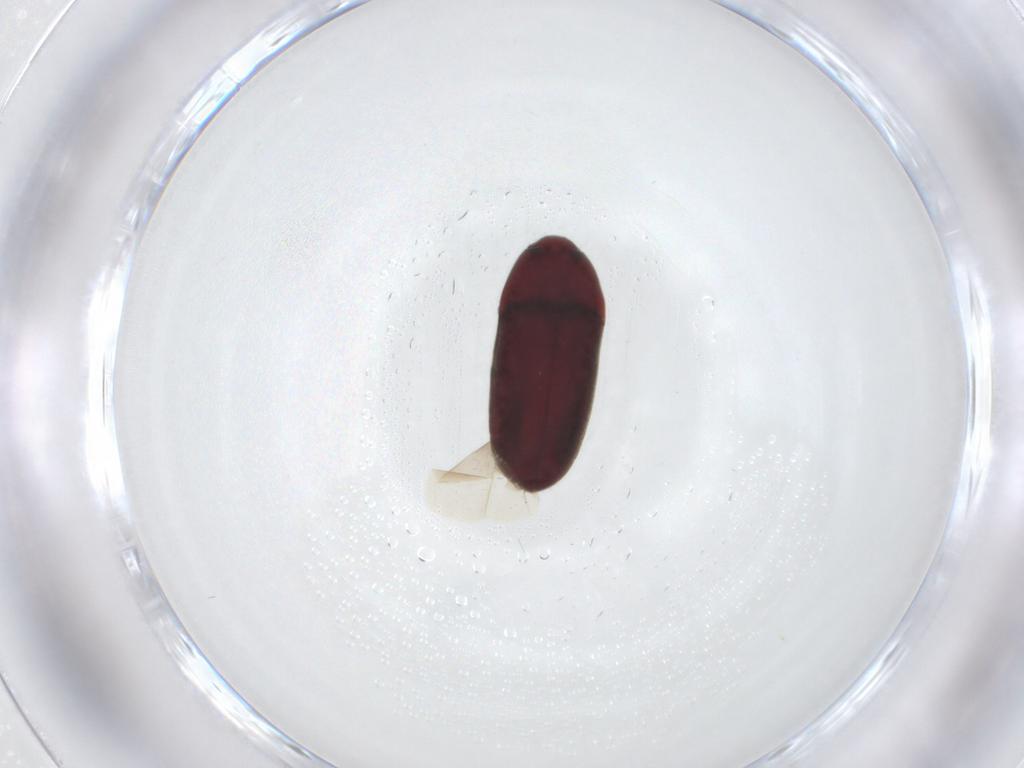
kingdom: Animalia
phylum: Arthropoda
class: Insecta
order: Coleoptera
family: Throscidae
